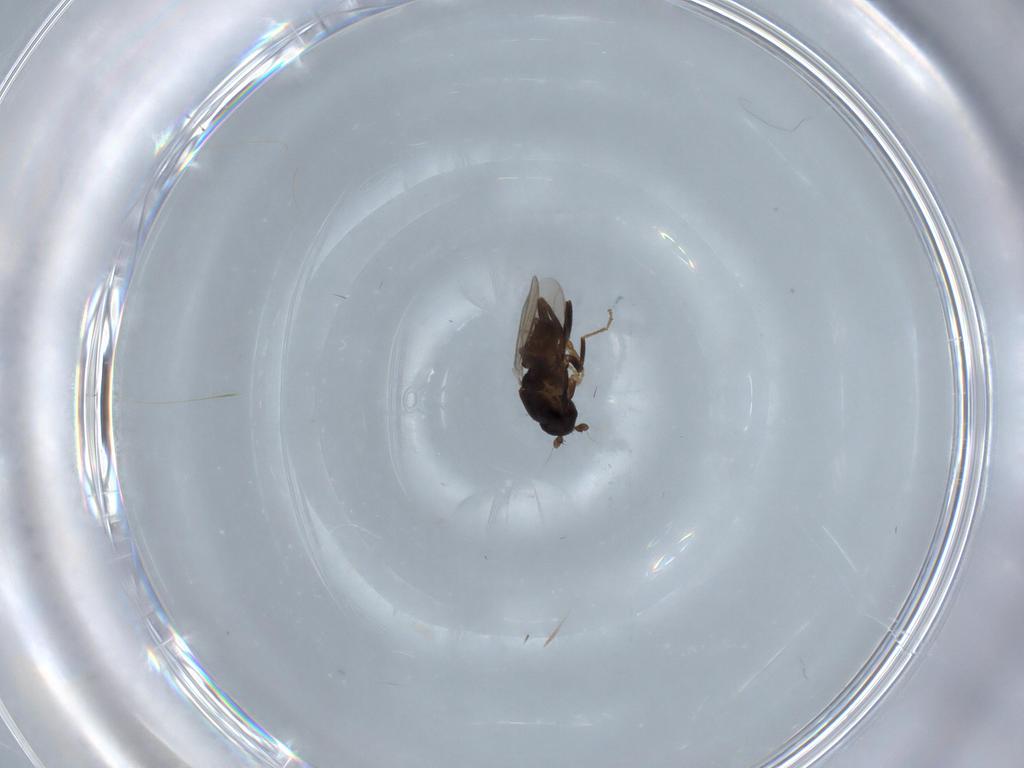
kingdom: Animalia
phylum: Arthropoda
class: Insecta
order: Diptera
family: Sphaeroceridae
